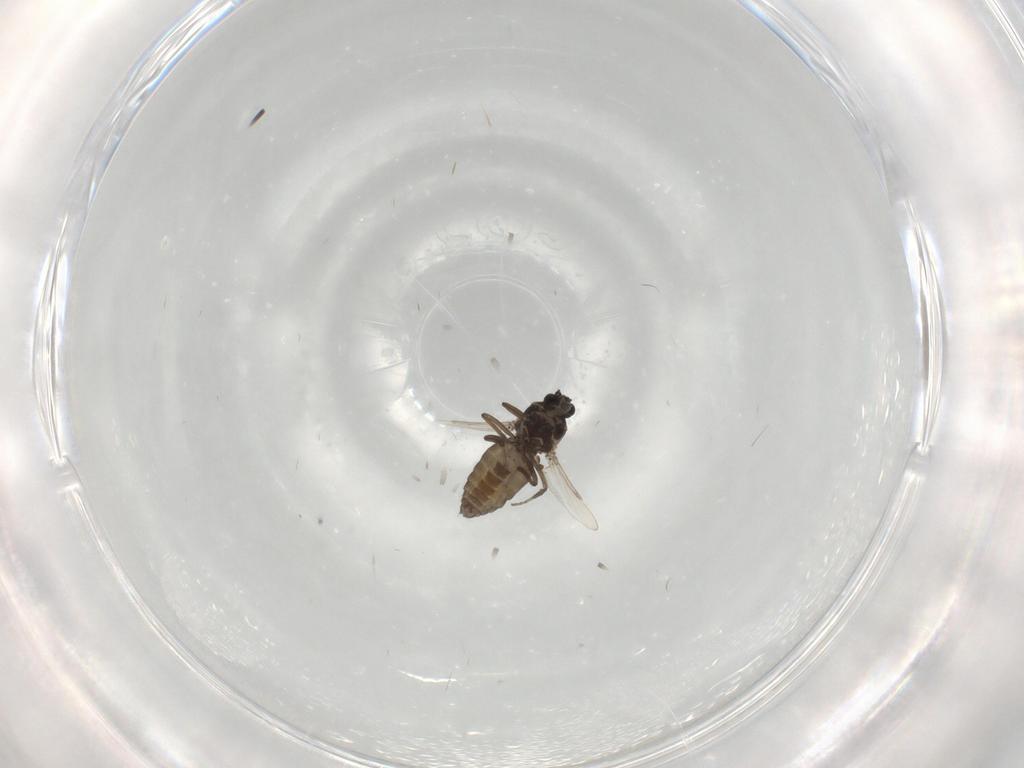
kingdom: Animalia
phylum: Arthropoda
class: Insecta
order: Diptera
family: Ceratopogonidae
